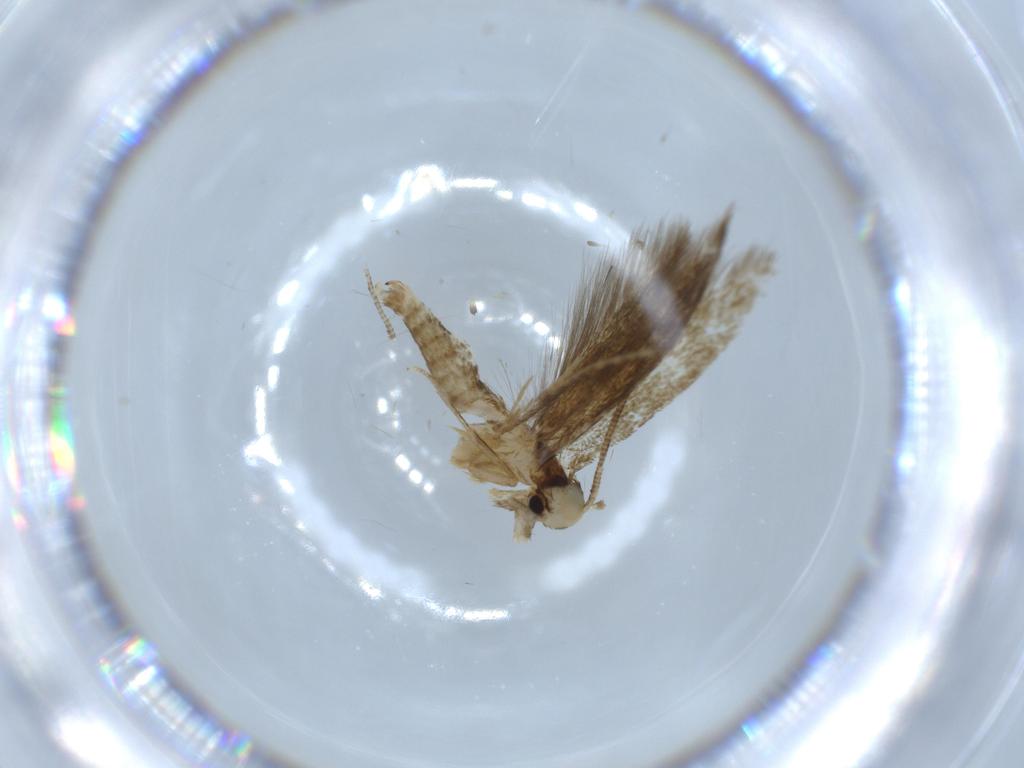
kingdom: Animalia
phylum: Arthropoda
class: Insecta
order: Lepidoptera
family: Tineidae
